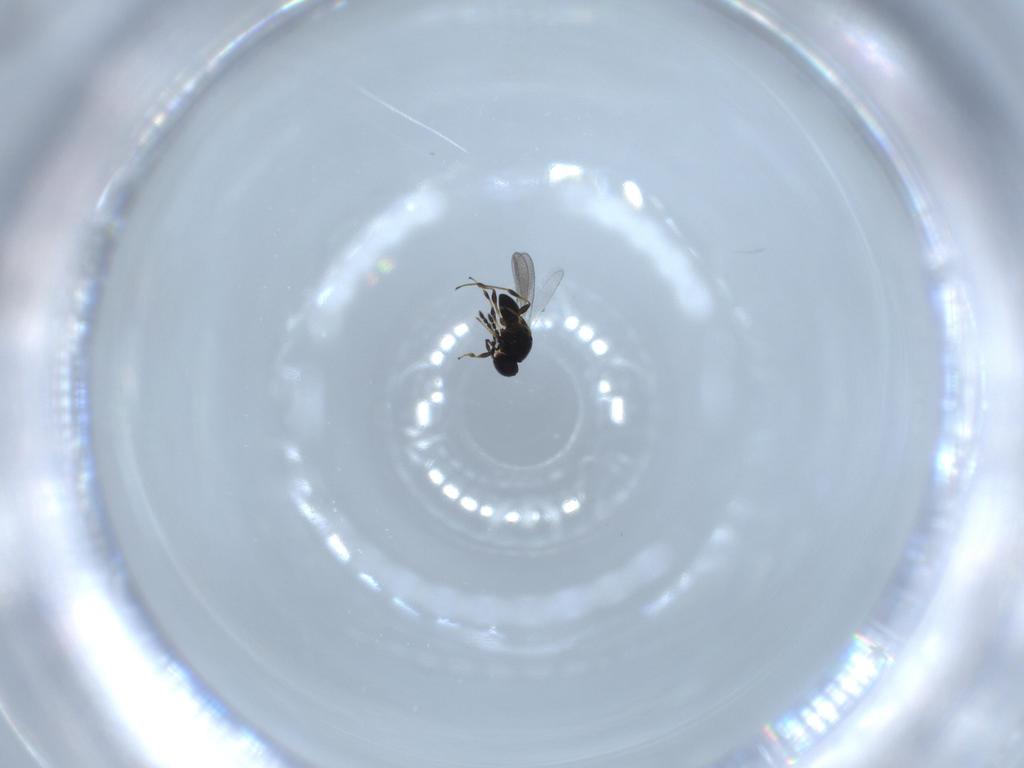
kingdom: Animalia
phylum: Arthropoda
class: Insecta
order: Hymenoptera
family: Platygastridae
